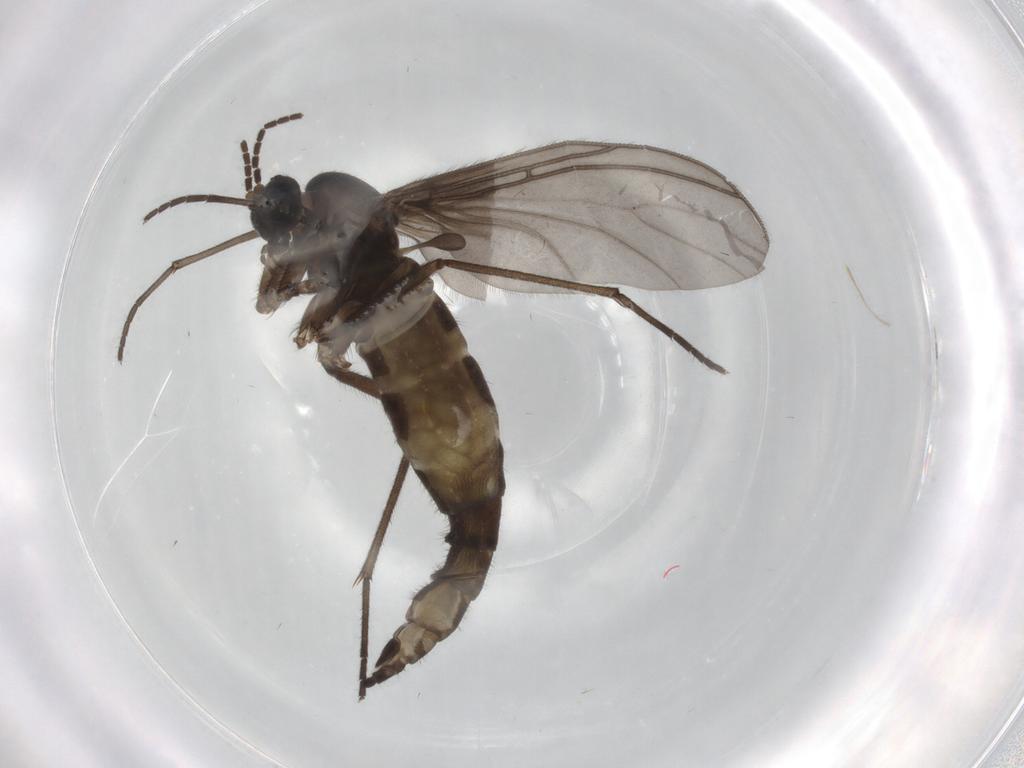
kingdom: Animalia
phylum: Arthropoda
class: Insecta
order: Diptera
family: Sciaridae
